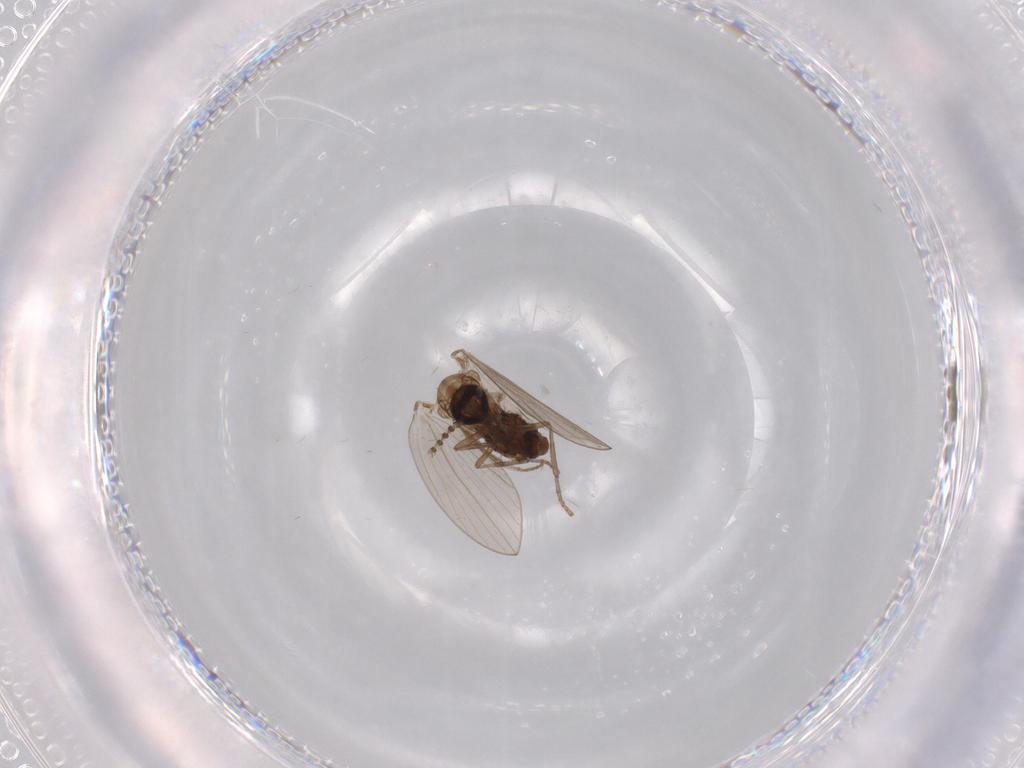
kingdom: Animalia
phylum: Arthropoda
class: Insecta
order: Diptera
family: Psychodidae
